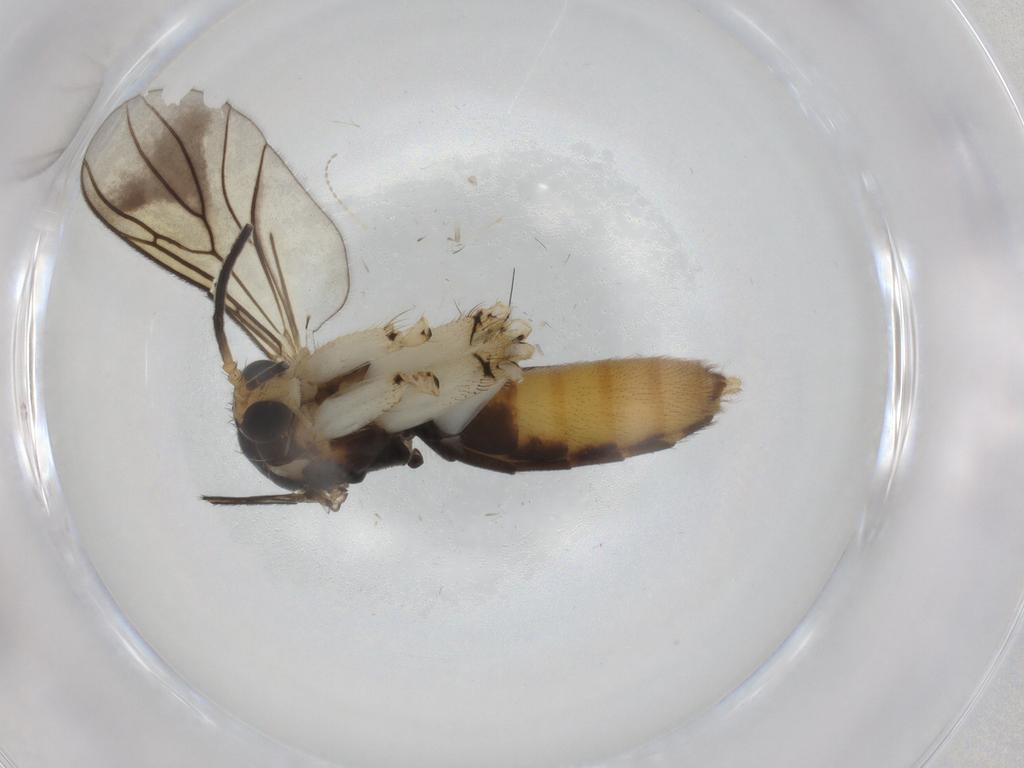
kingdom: Animalia
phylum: Arthropoda
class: Insecta
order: Diptera
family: Mycetophilidae
